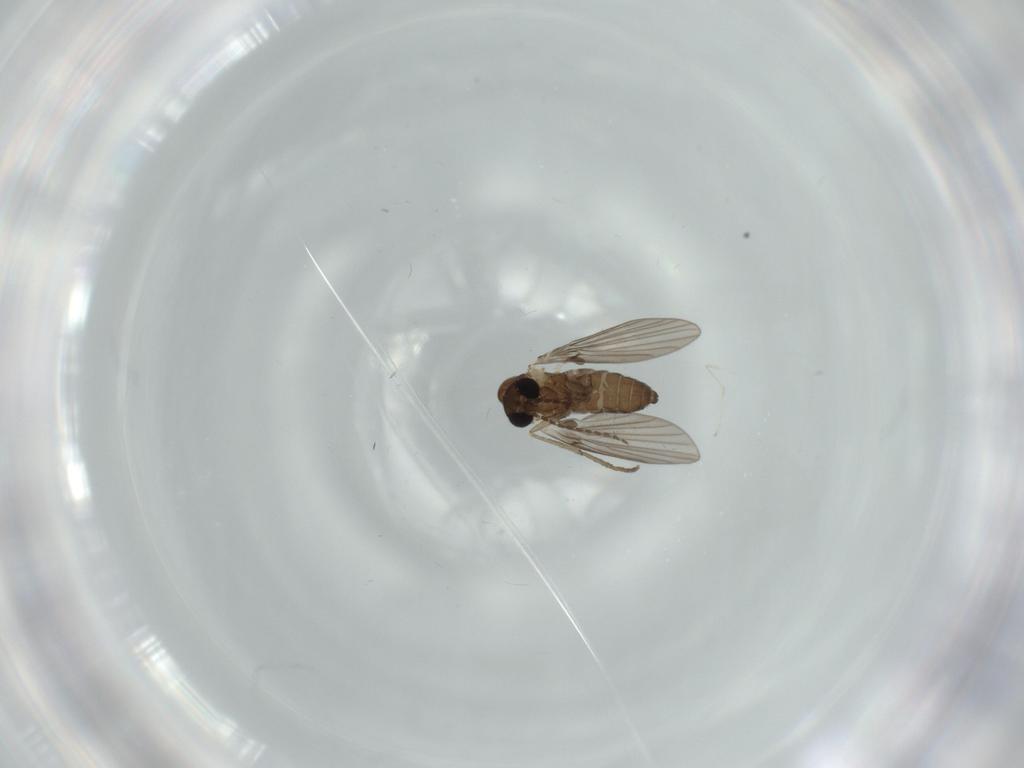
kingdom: Animalia
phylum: Arthropoda
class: Insecta
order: Diptera
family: Psychodidae
